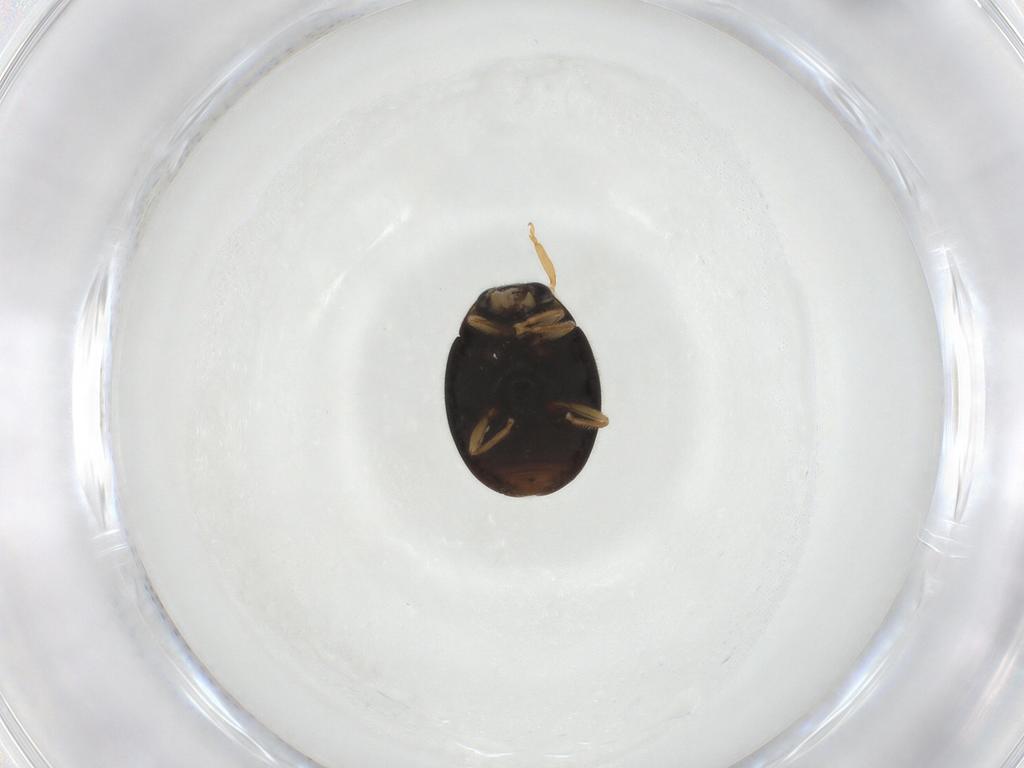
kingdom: Animalia
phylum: Arthropoda
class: Insecta
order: Coleoptera
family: Coccinellidae
